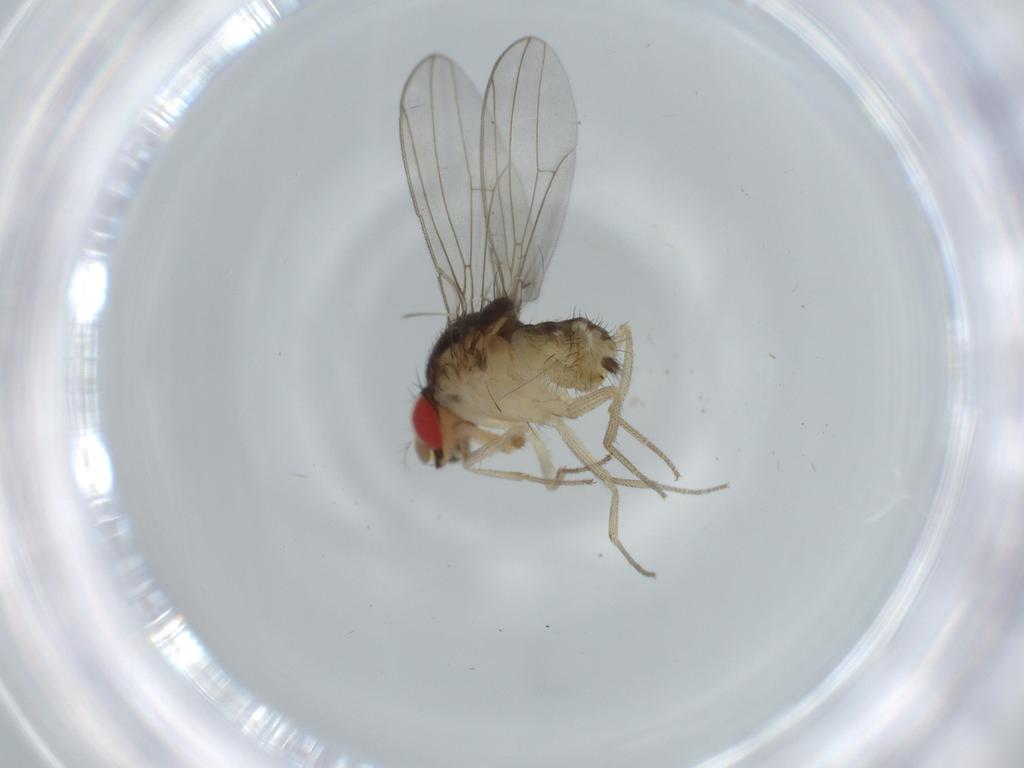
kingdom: Animalia
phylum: Arthropoda
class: Insecta
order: Diptera
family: Drosophilidae
